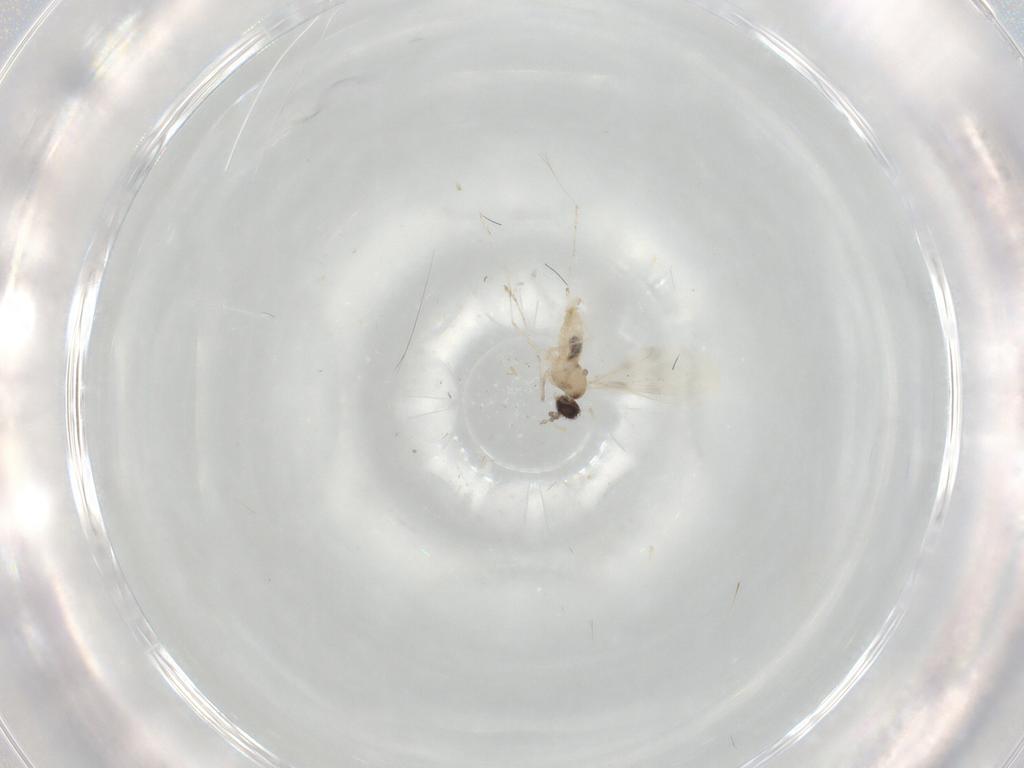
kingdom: Animalia
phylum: Arthropoda
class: Insecta
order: Diptera
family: Cecidomyiidae
